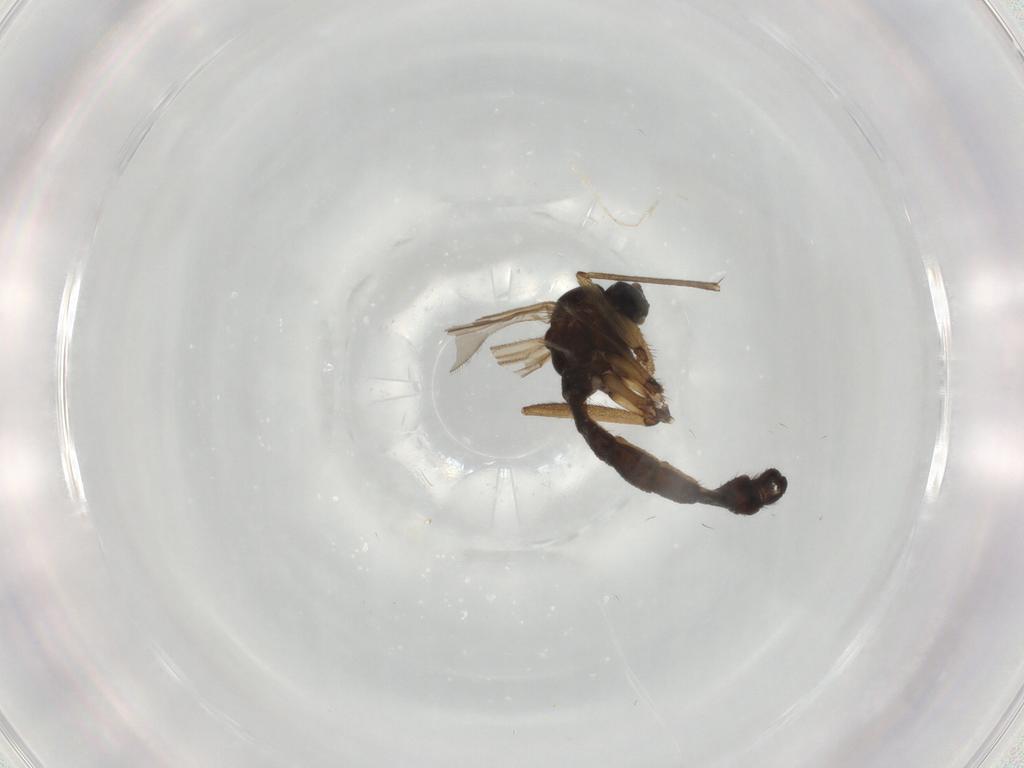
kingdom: Animalia
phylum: Arthropoda
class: Insecta
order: Diptera
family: Sciaridae
